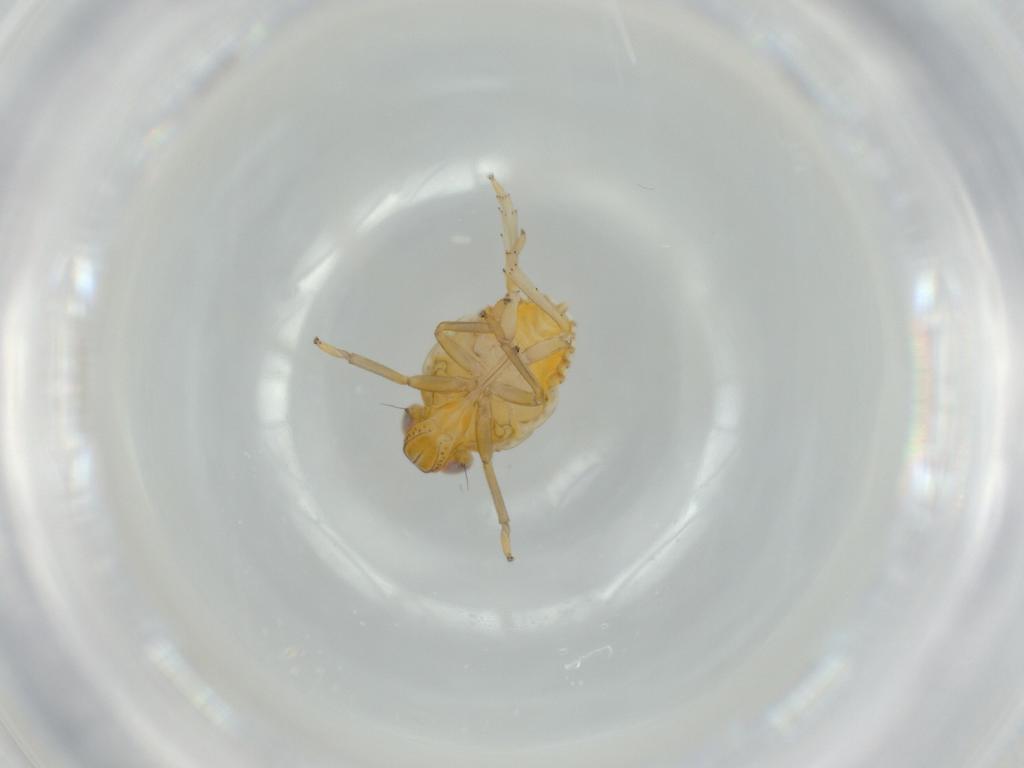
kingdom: Animalia
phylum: Arthropoda
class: Insecta
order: Hemiptera
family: Issidae
